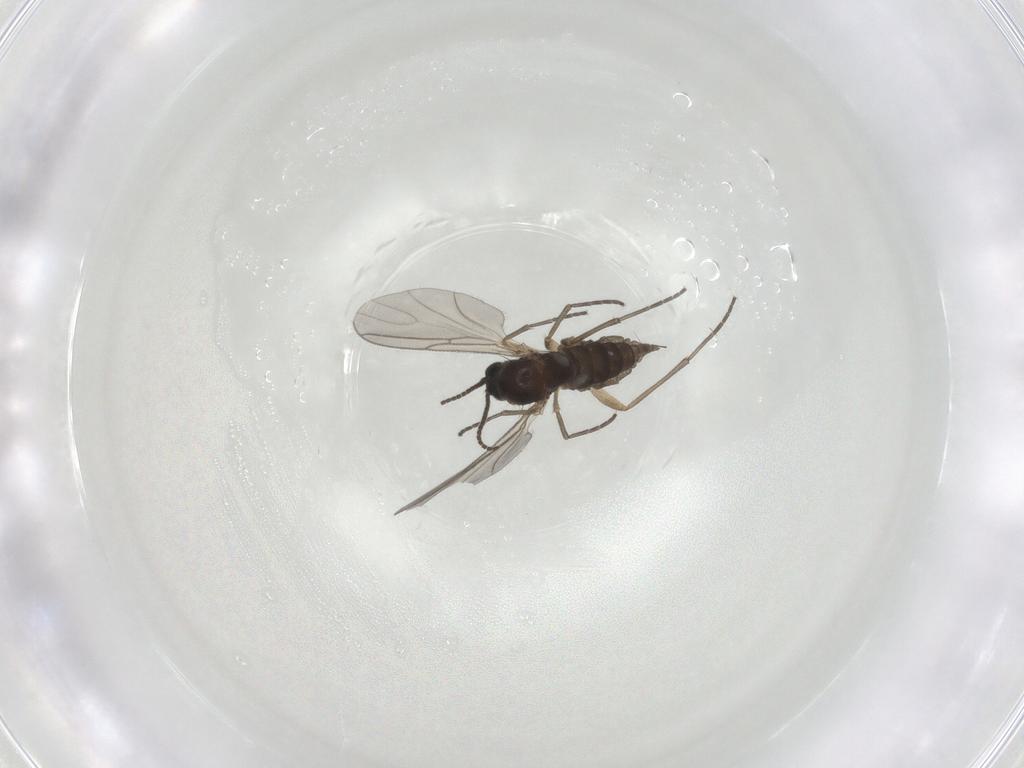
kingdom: Animalia
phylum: Arthropoda
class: Insecta
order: Diptera
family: Sciaridae
